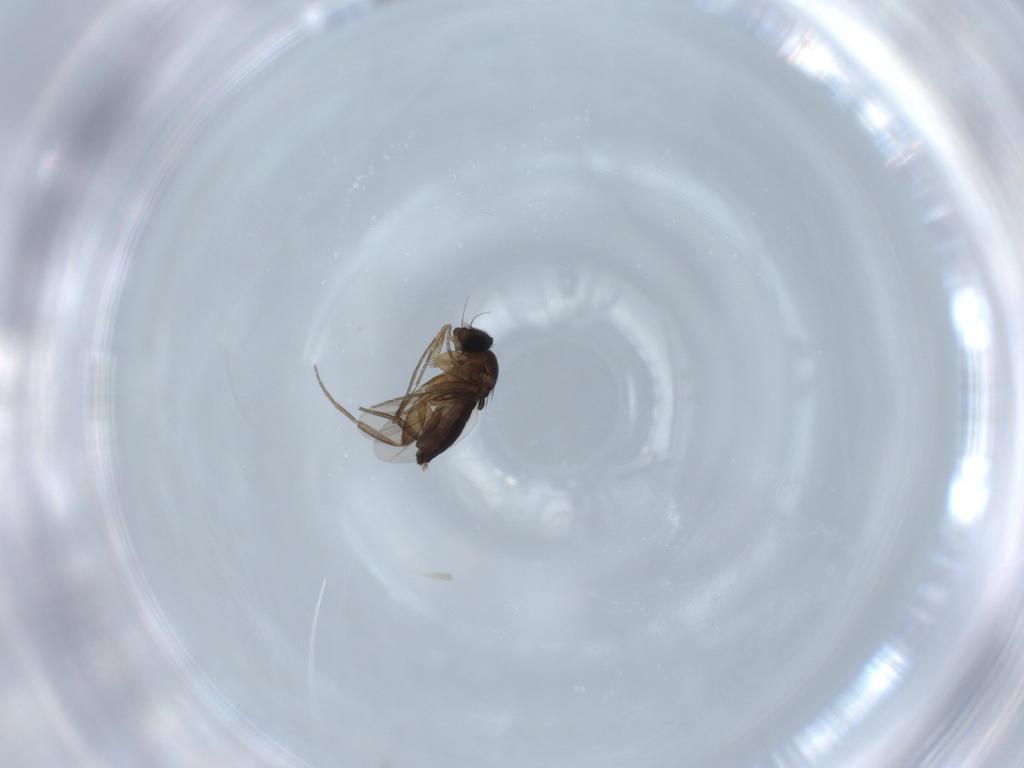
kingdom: Animalia
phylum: Arthropoda
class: Insecta
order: Diptera
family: Phoridae
